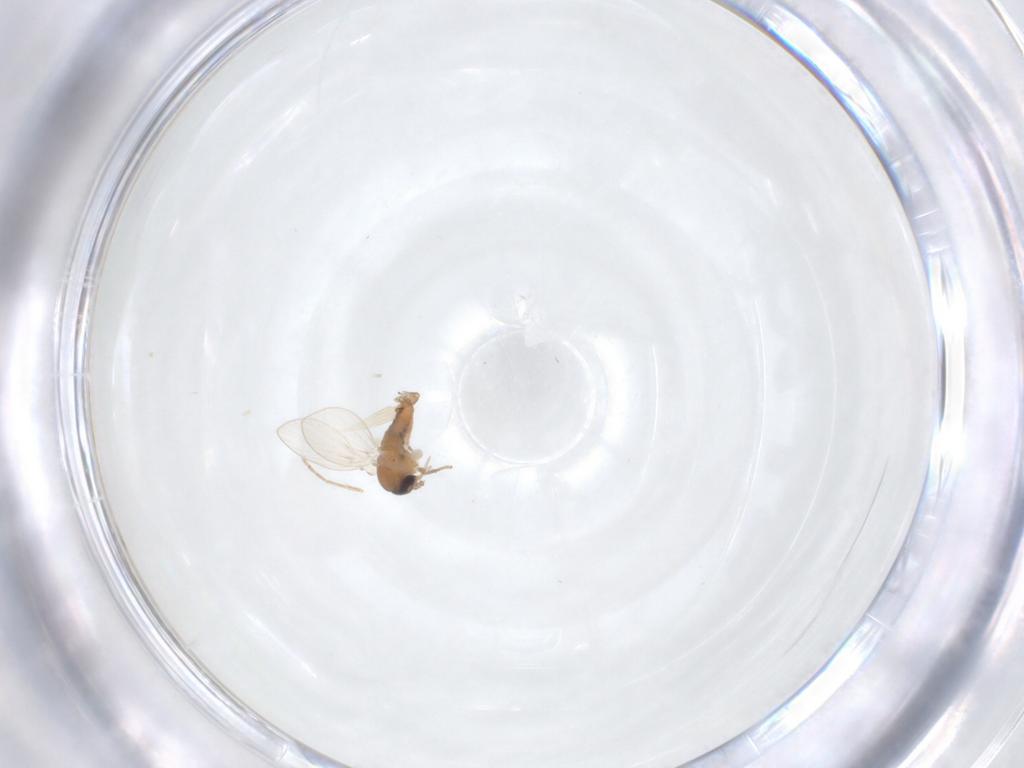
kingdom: Animalia
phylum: Arthropoda
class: Insecta
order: Diptera
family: Psychodidae
